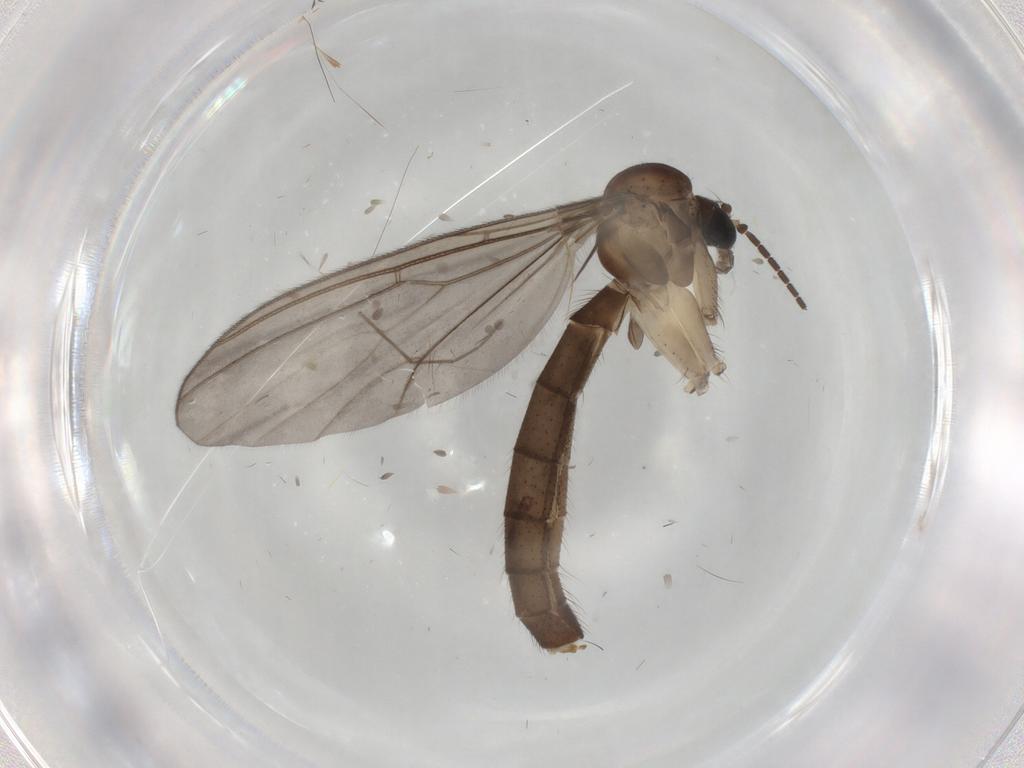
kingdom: Animalia
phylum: Arthropoda
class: Insecta
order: Diptera
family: Mycetophilidae
